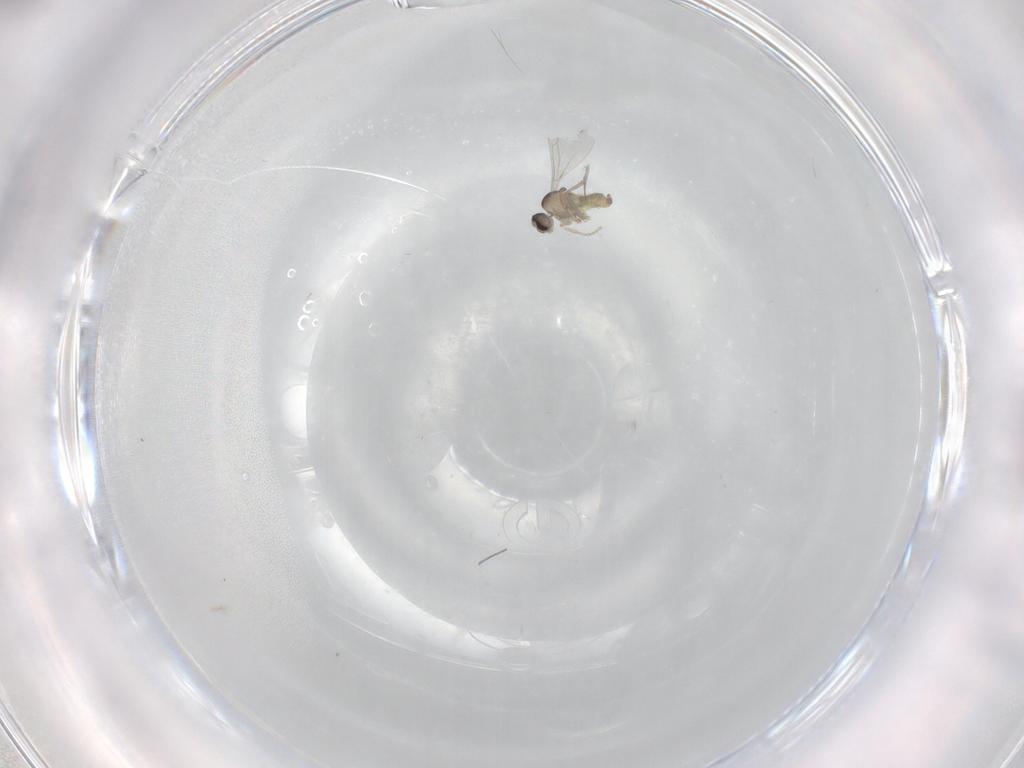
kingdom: Animalia
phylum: Arthropoda
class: Insecta
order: Diptera
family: Cecidomyiidae
